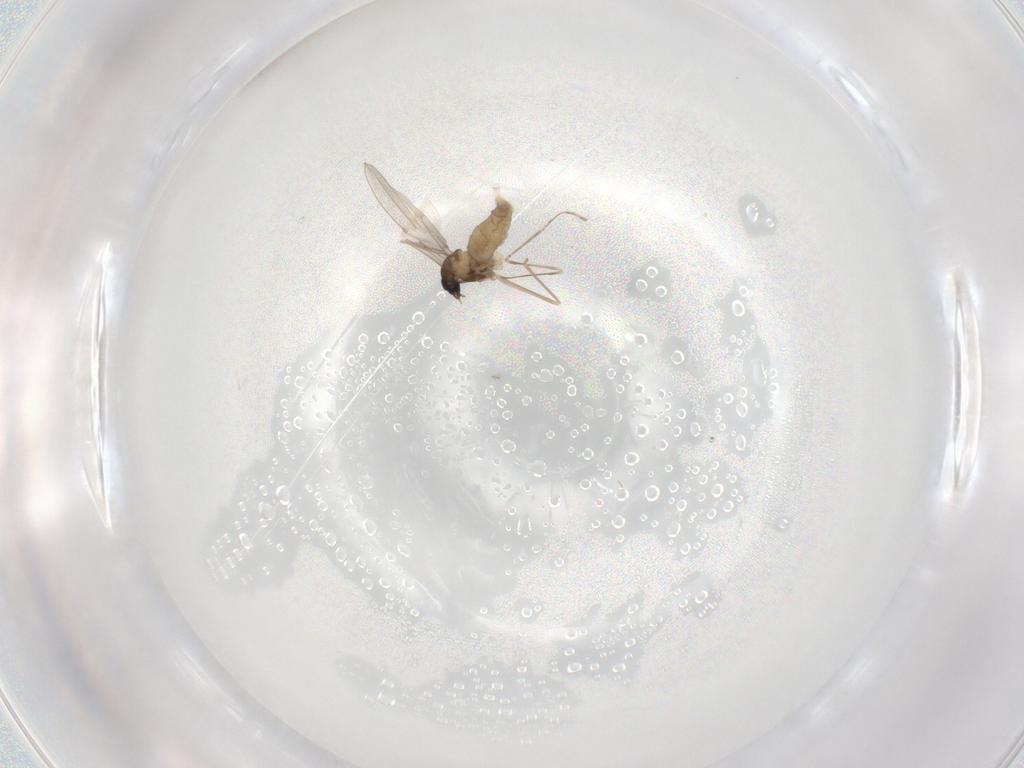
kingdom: Animalia
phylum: Arthropoda
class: Insecta
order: Diptera
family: Cecidomyiidae
